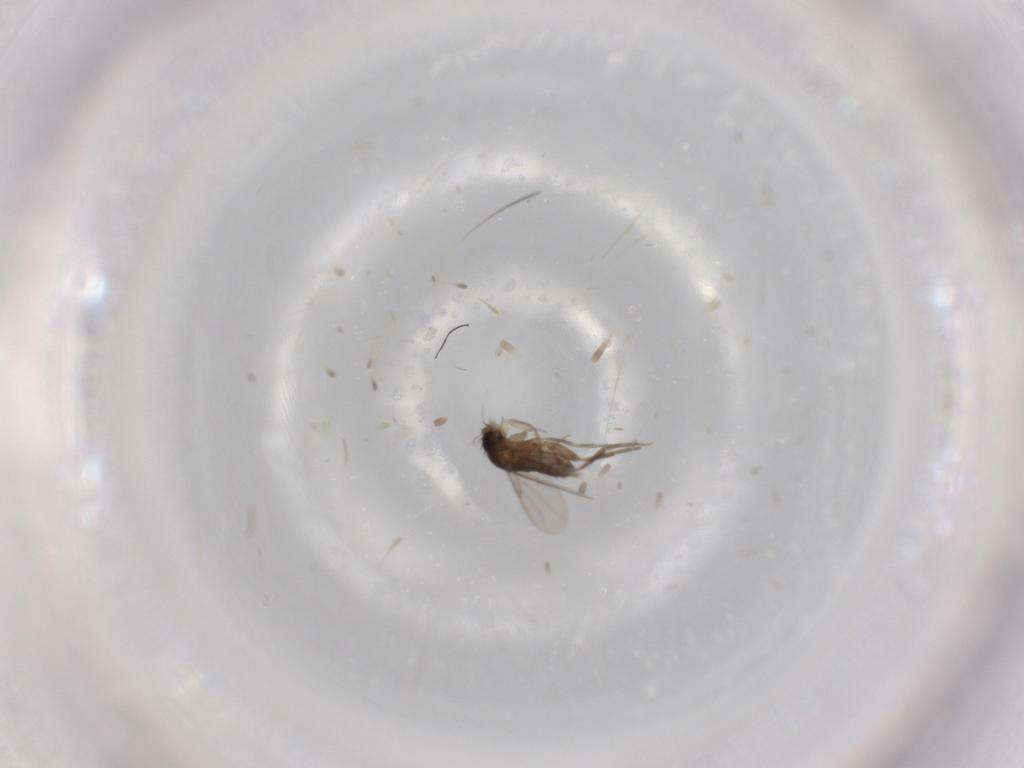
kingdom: Animalia
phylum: Arthropoda
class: Insecta
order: Diptera
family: Phoridae
